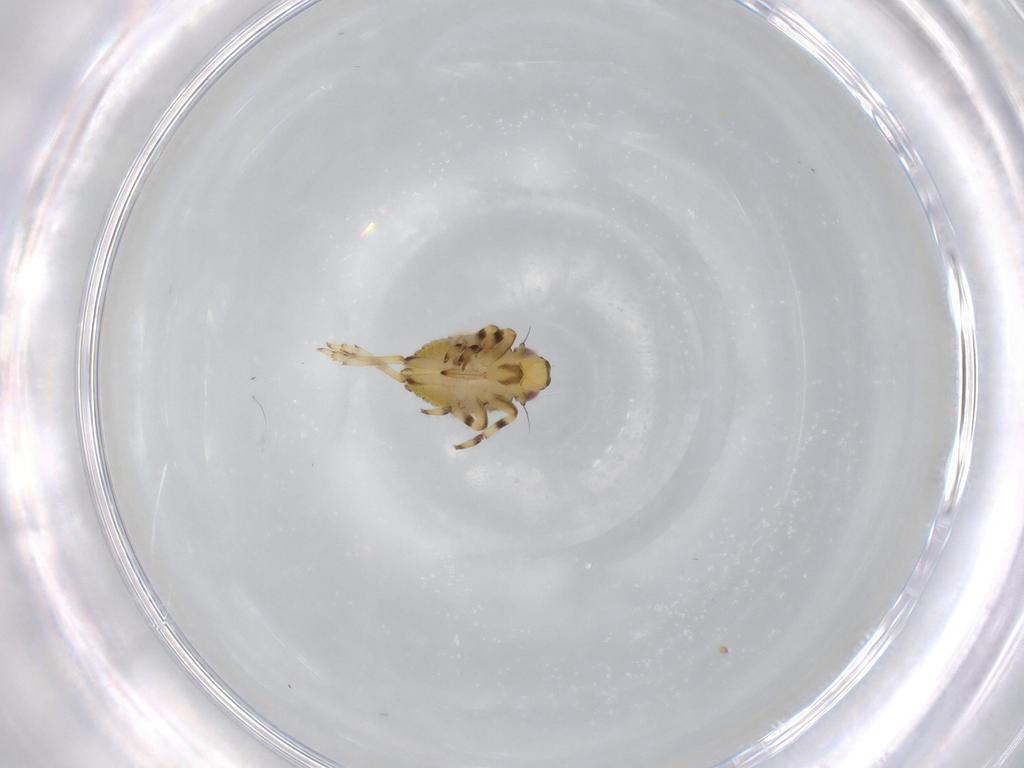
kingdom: Animalia
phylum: Arthropoda
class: Insecta
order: Hemiptera
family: Issidae
